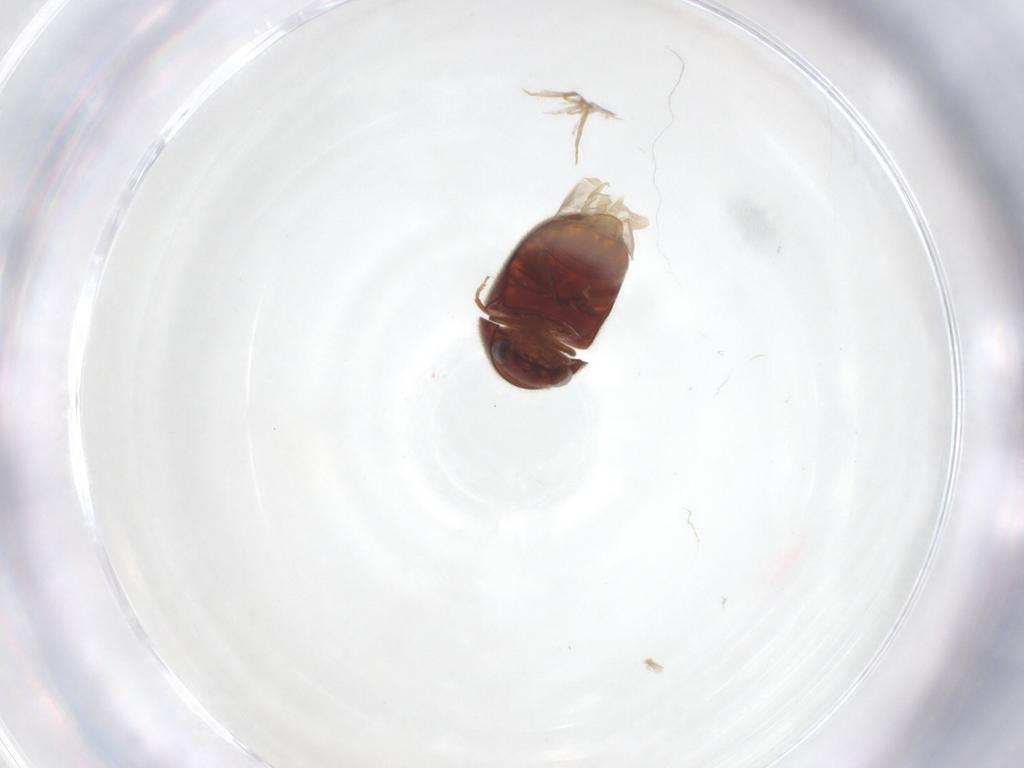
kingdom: Animalia
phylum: Arthropoda
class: Insecta
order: Coleoptera
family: Ptinidae
